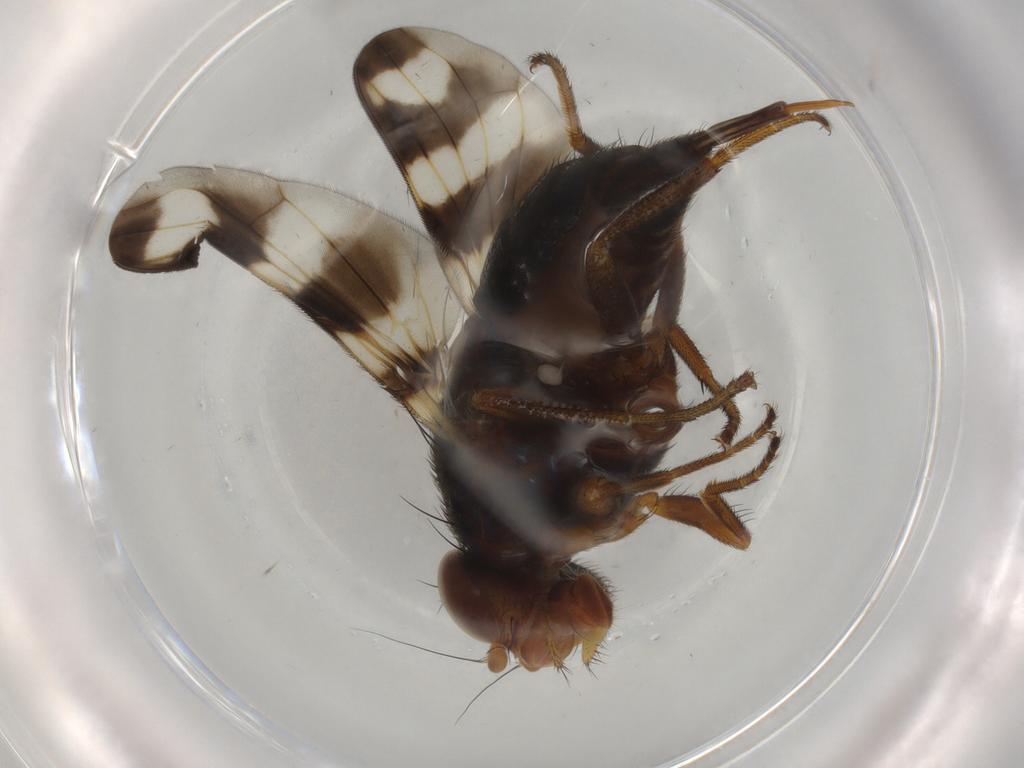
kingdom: Animalia
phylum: Arthropoda
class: Insecta
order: Diptera
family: Ulidiidae
